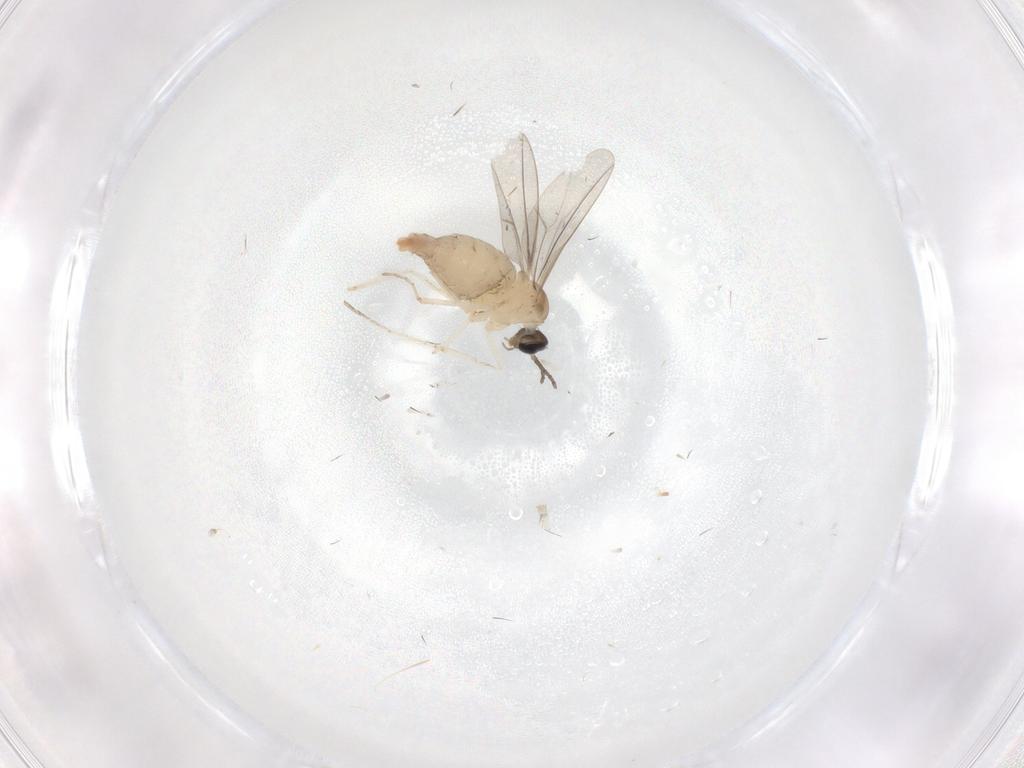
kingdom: Animalia
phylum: Arthropoda
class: Insecta
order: Diptera
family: Cecidomyiidae
